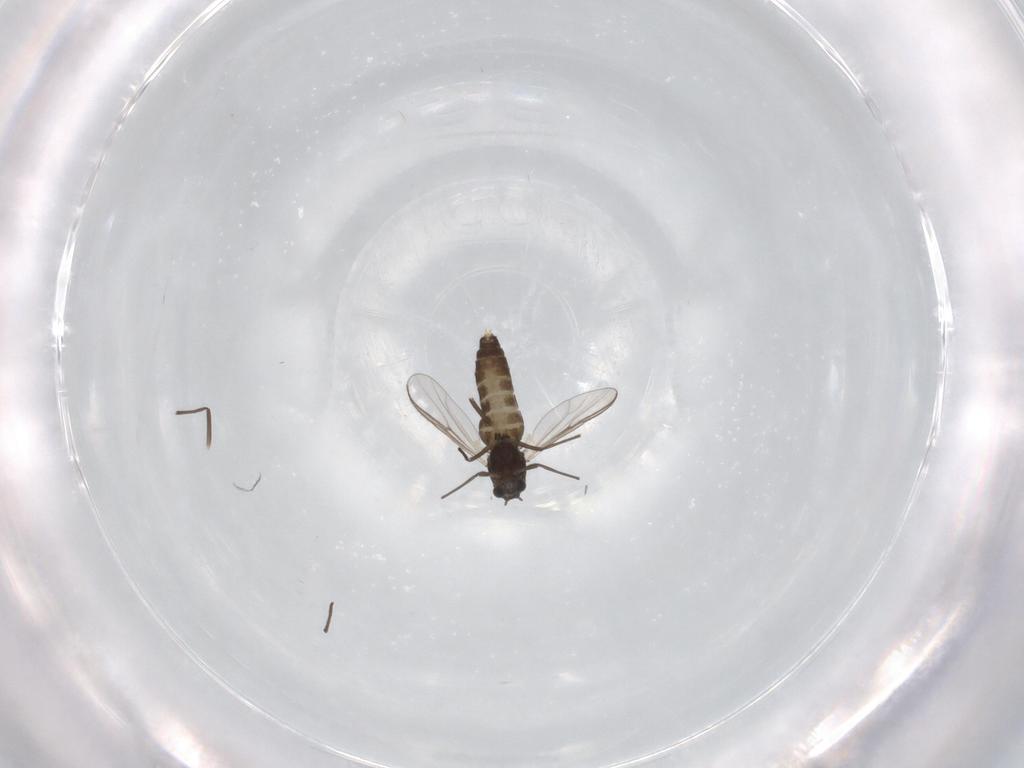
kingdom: Animalia
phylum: Arthropoda
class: Insecta
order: Diptera
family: Chironomidae
